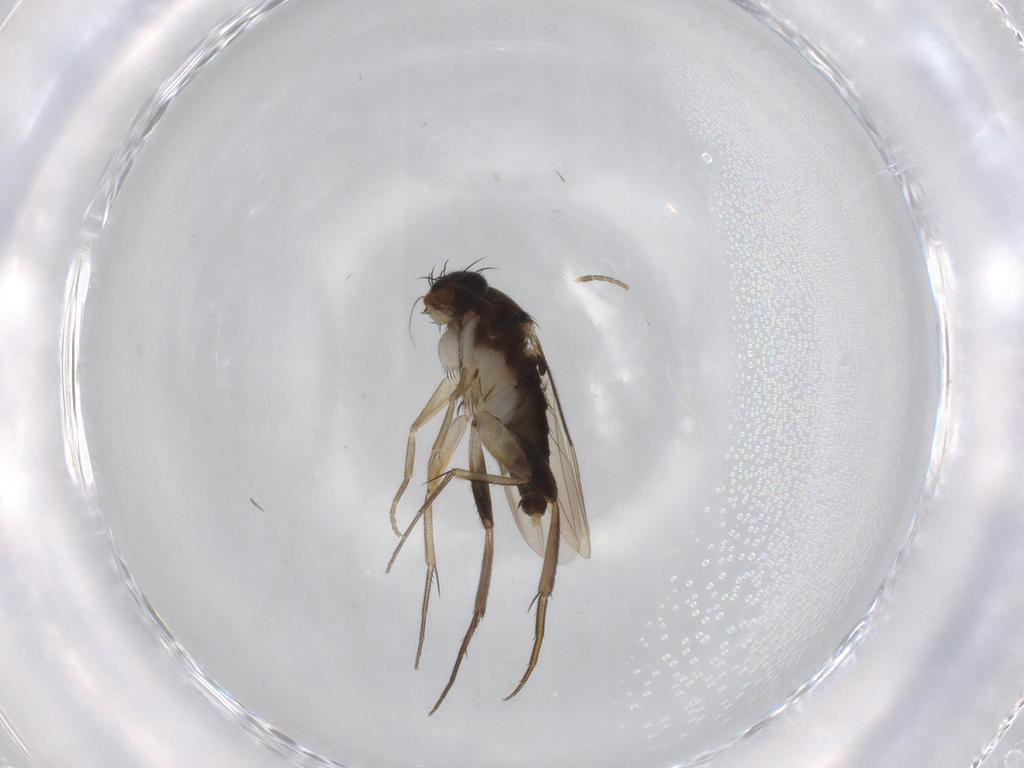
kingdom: Animalia
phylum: Arthropoda
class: Insecta
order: Diptera
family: Phoridae
